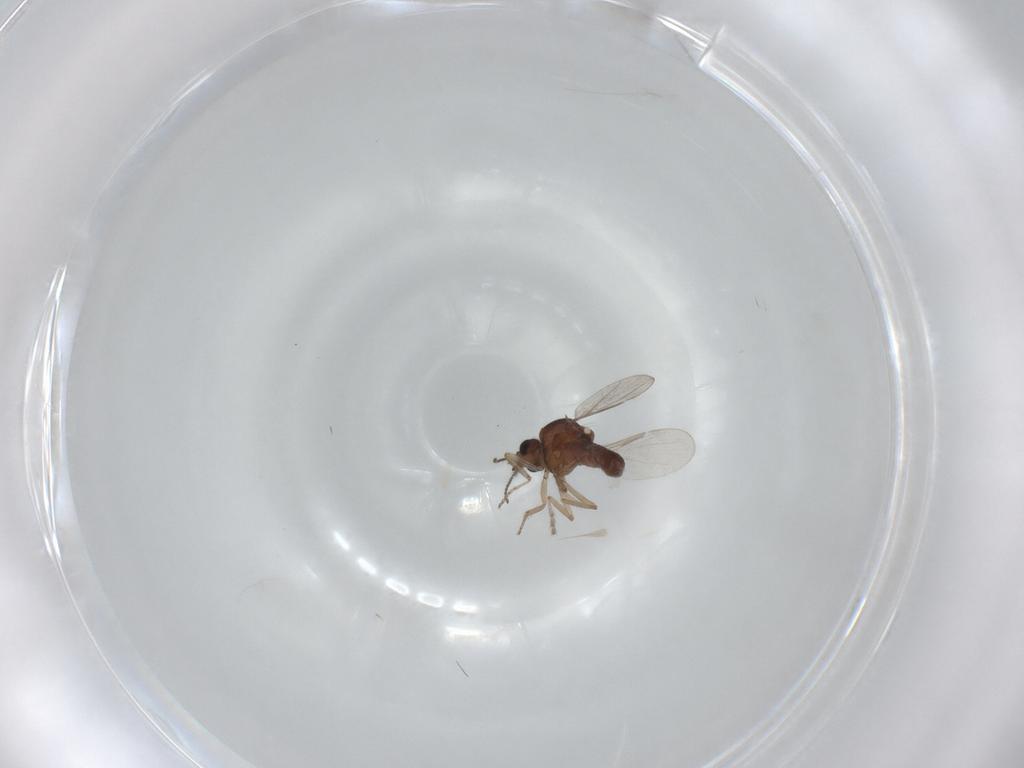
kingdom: Animalia
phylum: Arthropoda
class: Insecta
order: Diptera
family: Ceratopogonidae
